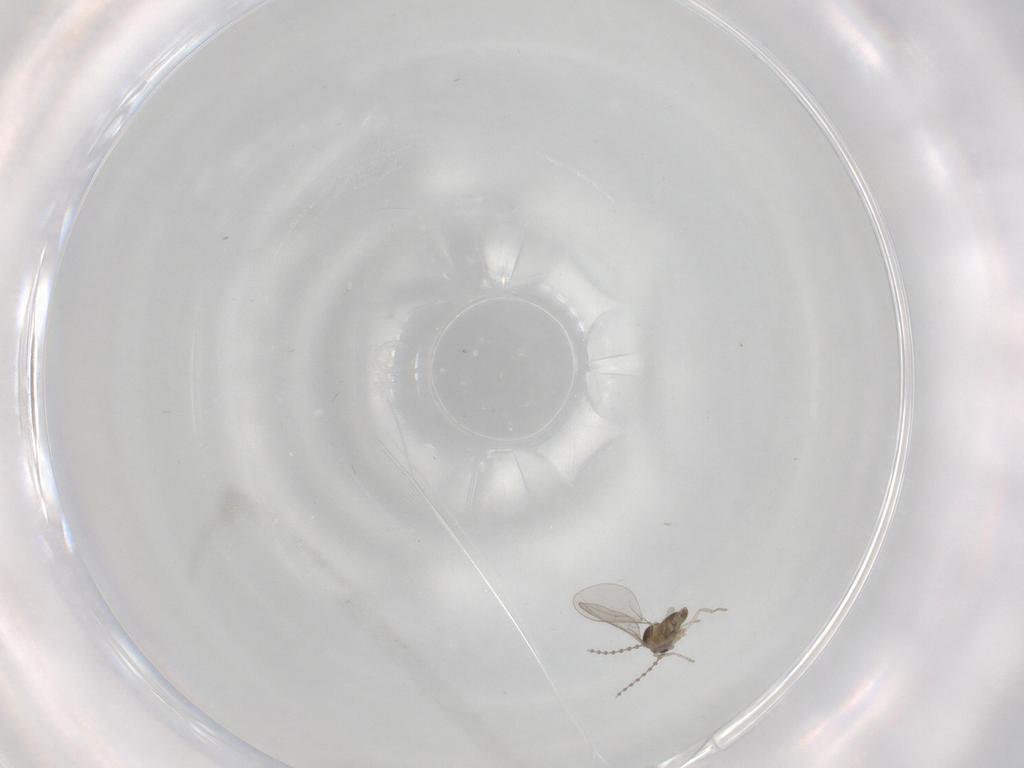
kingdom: Animalia
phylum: Arthropoda
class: Insecta
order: Diptera
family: Cecidomyiidae
